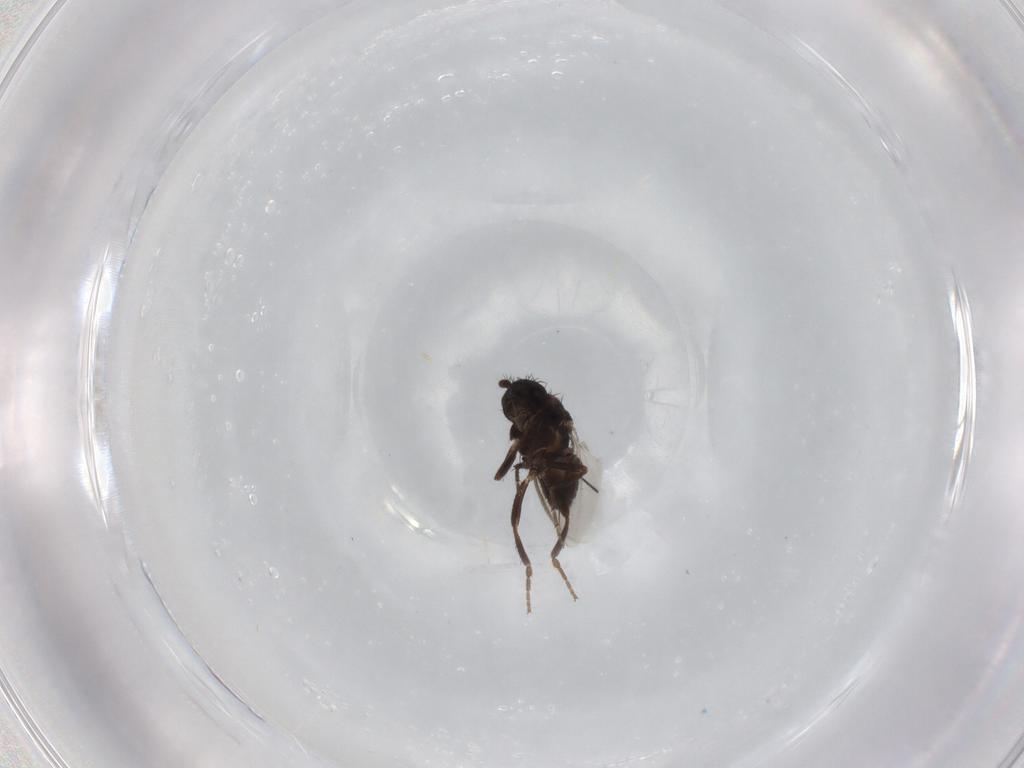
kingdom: Animalia
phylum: Arthropoda
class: Insecta
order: Diptera
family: Sphaeroceridae
